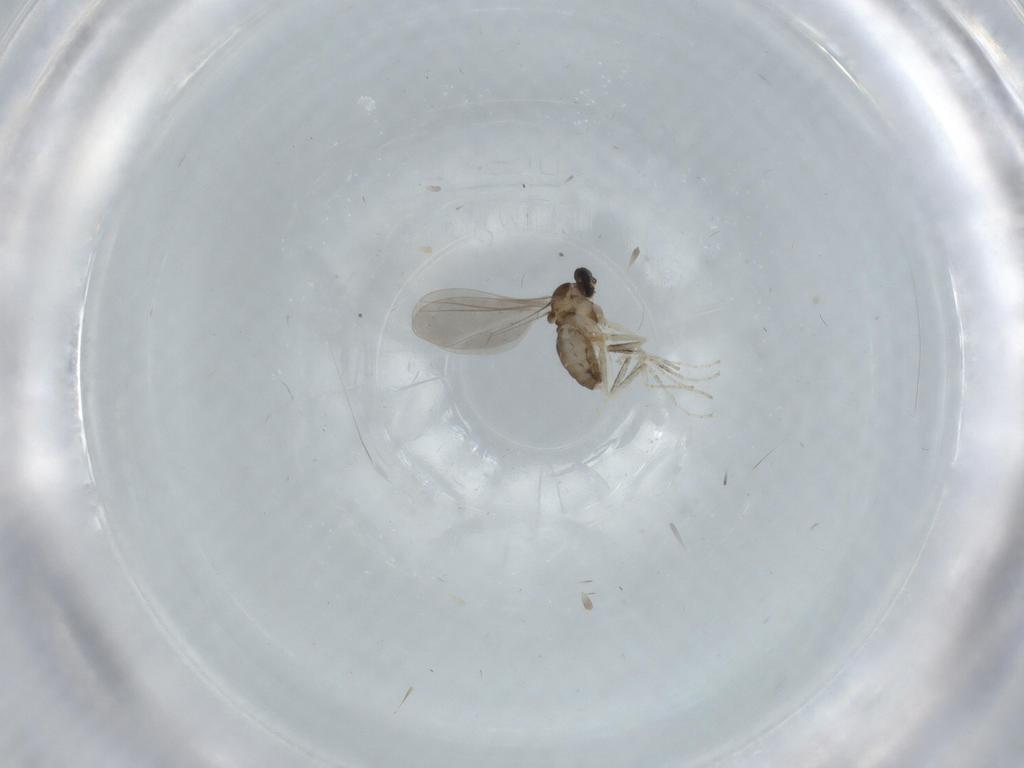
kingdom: Animalia
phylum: Arthropoda
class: Insecta
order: Diptera
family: Cecidomyiidae
